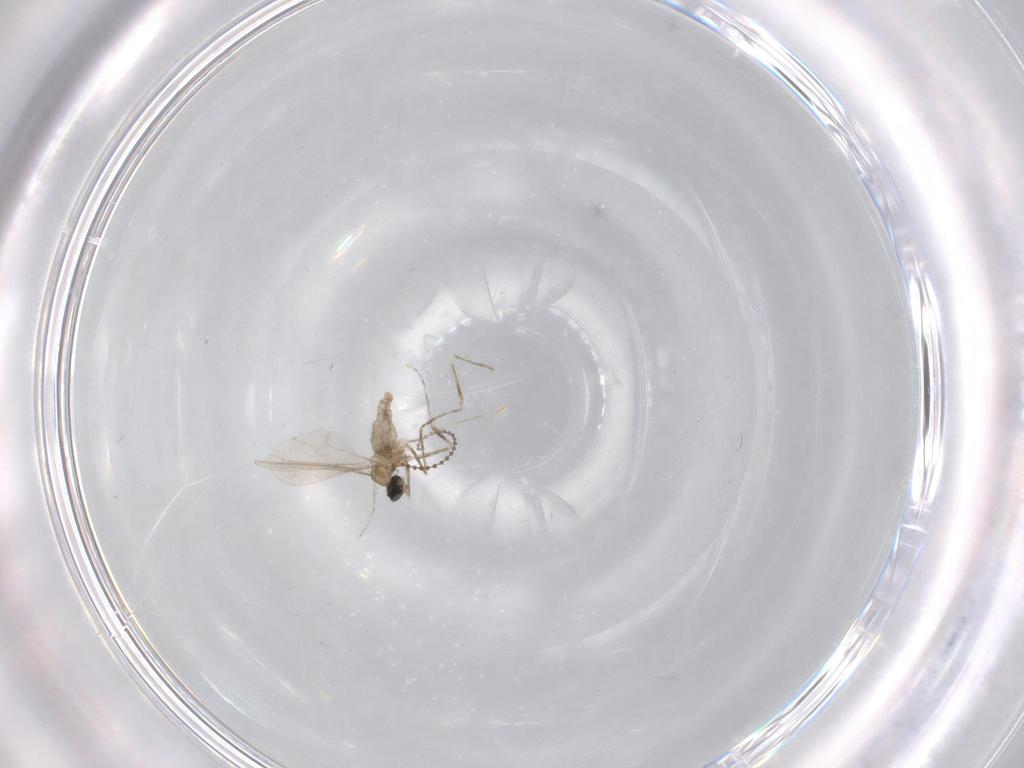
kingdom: Animalia
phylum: Arthropoda
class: Insecta
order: Diptera
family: Cecidomyiidae
